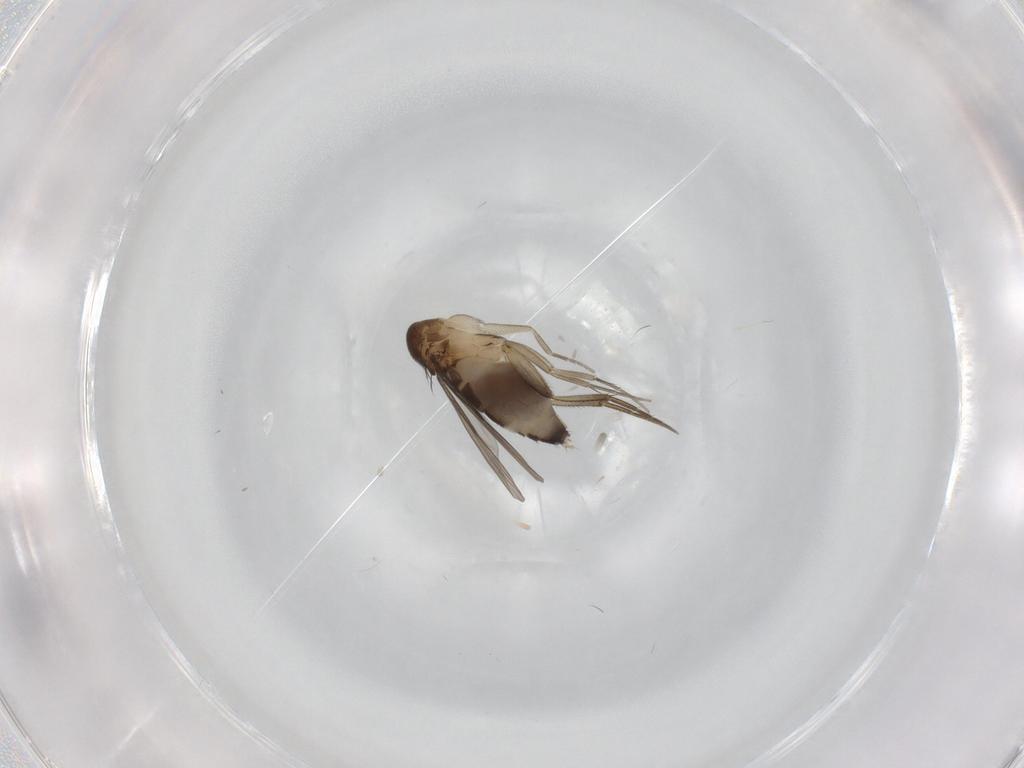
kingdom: Animalia
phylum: Arthropoda
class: Insecta
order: Diptera
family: Phoridae
